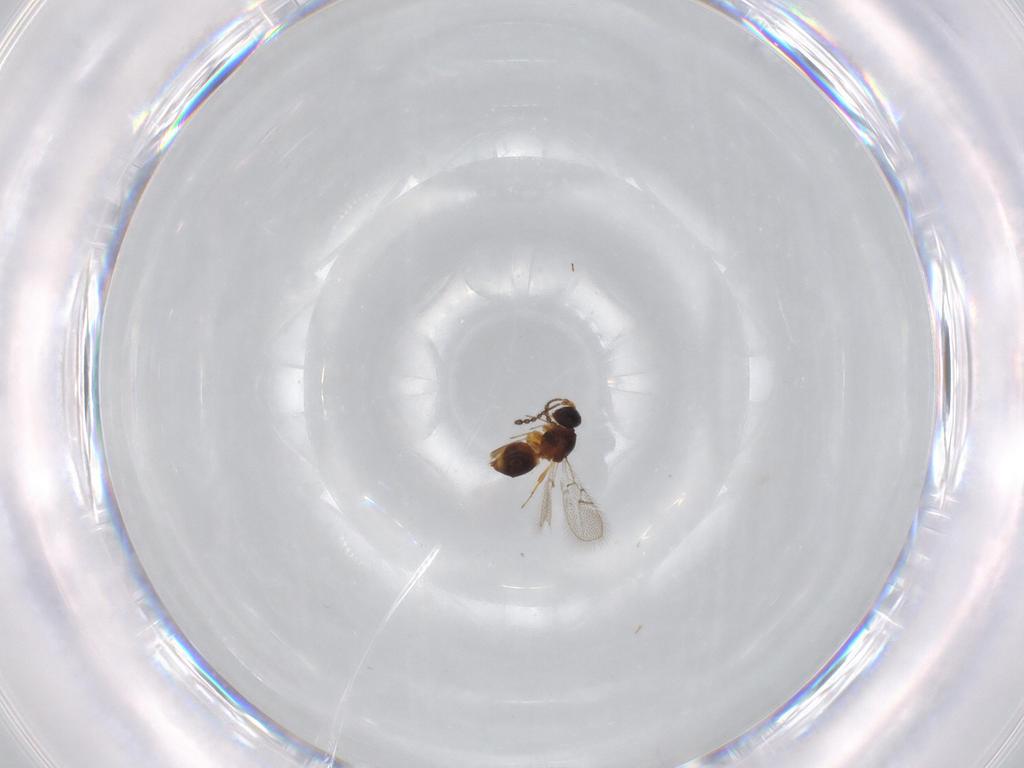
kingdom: Animalia
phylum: Arthropoda
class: Insecta
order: Hymenoptera
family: Figitidae
